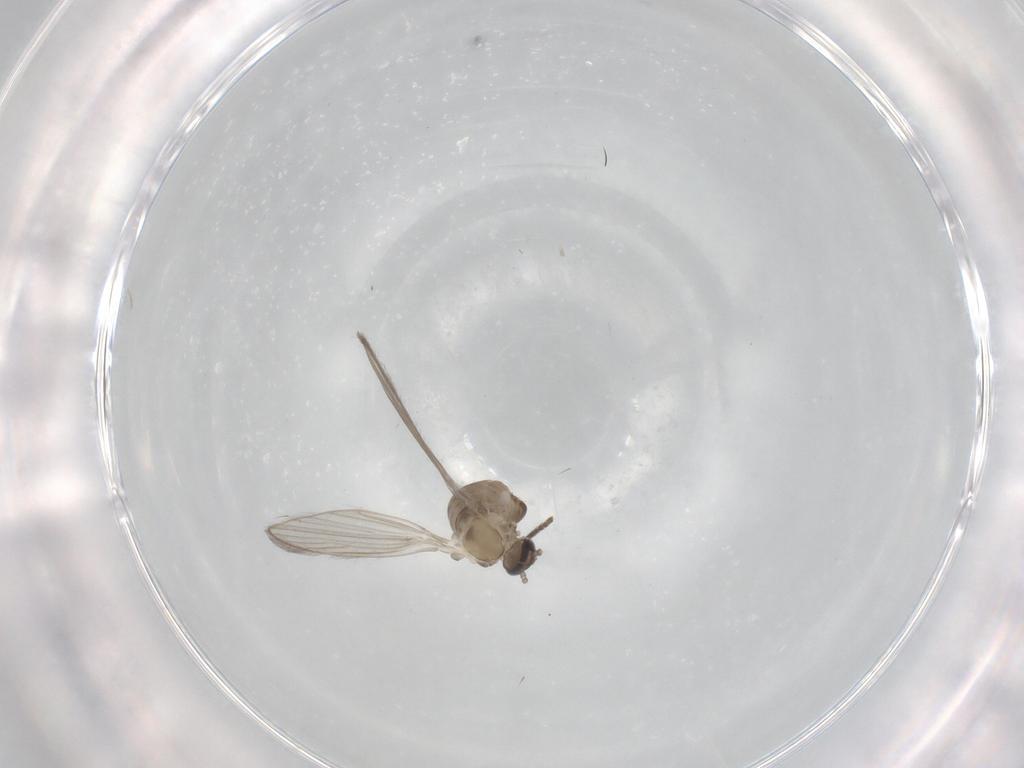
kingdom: Animalia
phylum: Arthropoda
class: Insecta
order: Diptera
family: Psychodidae
